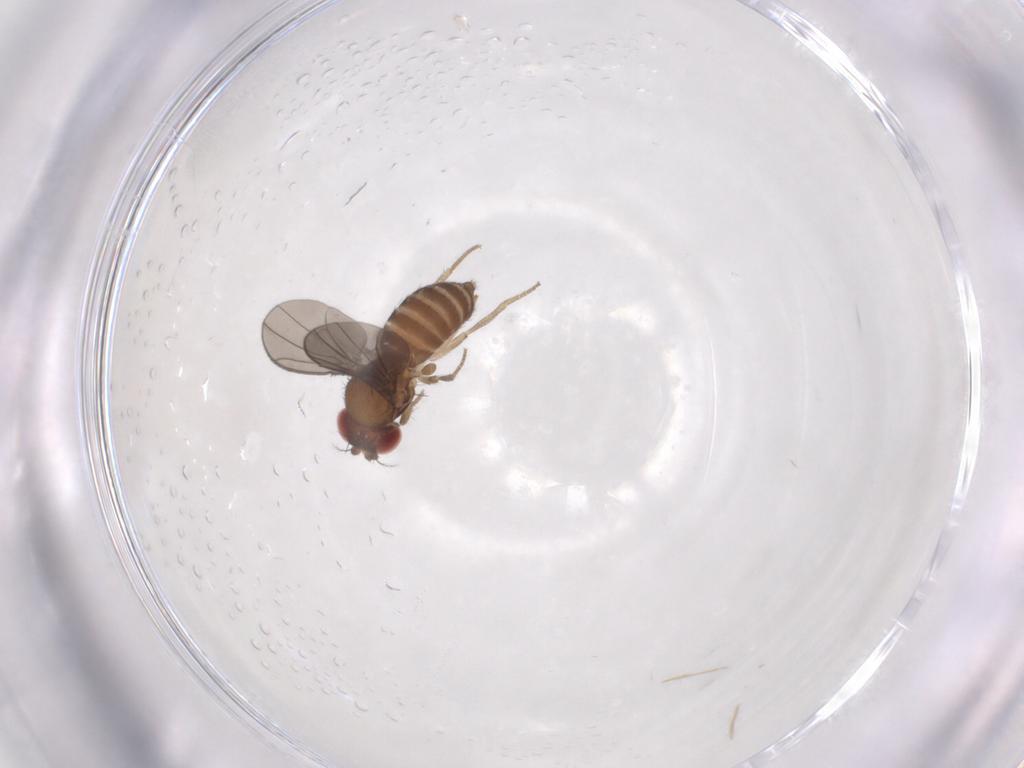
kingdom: Animalia
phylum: Arthropoda
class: Insecta
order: Diptera
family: Drosophilidae
